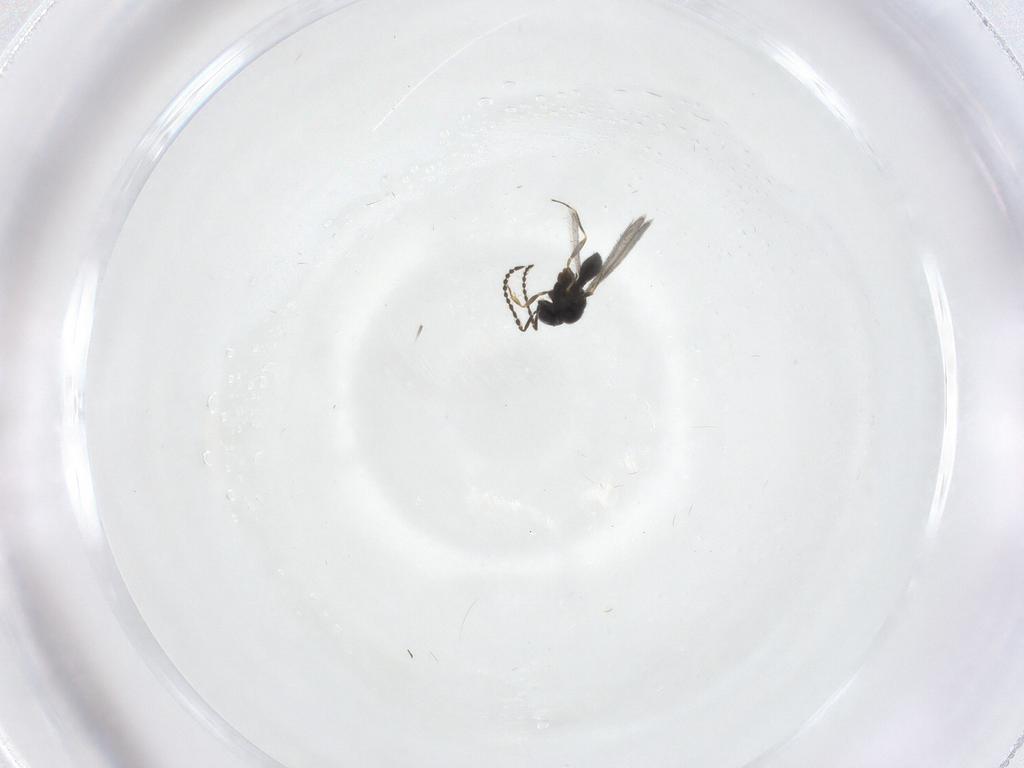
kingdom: Animalia
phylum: Arthropoda
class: Insecta
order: Hymenoptera
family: Scelionidae
